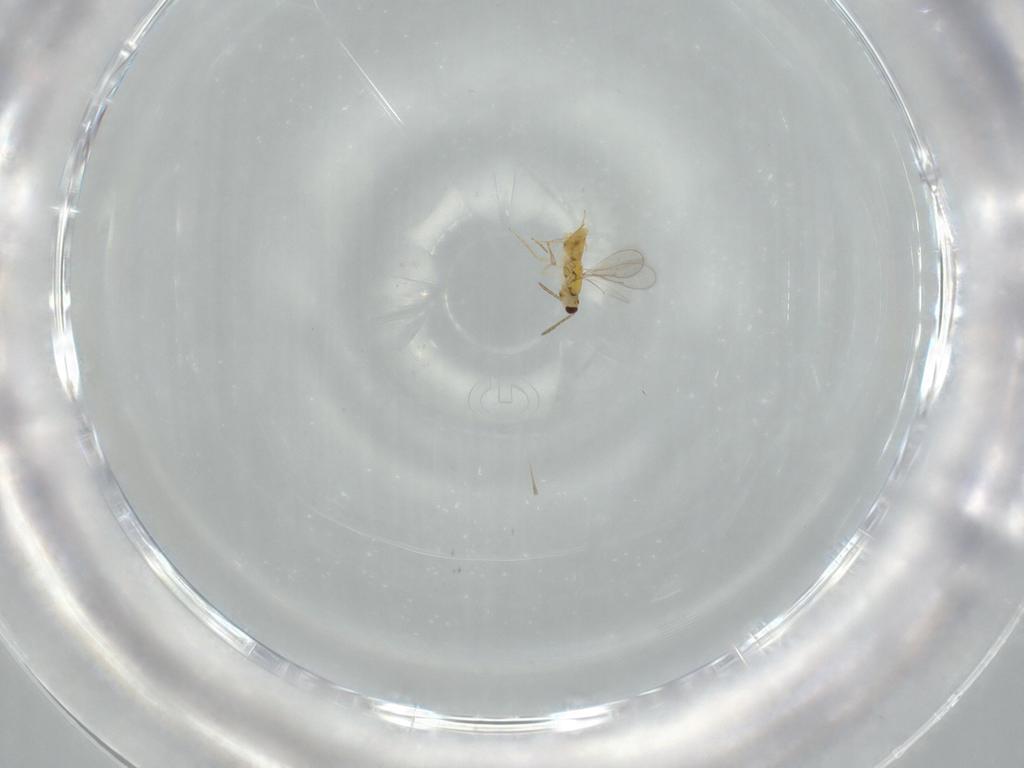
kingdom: Animalia
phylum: Arthropoda
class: Insecta
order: Hymenoptera
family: Aphelinidae
